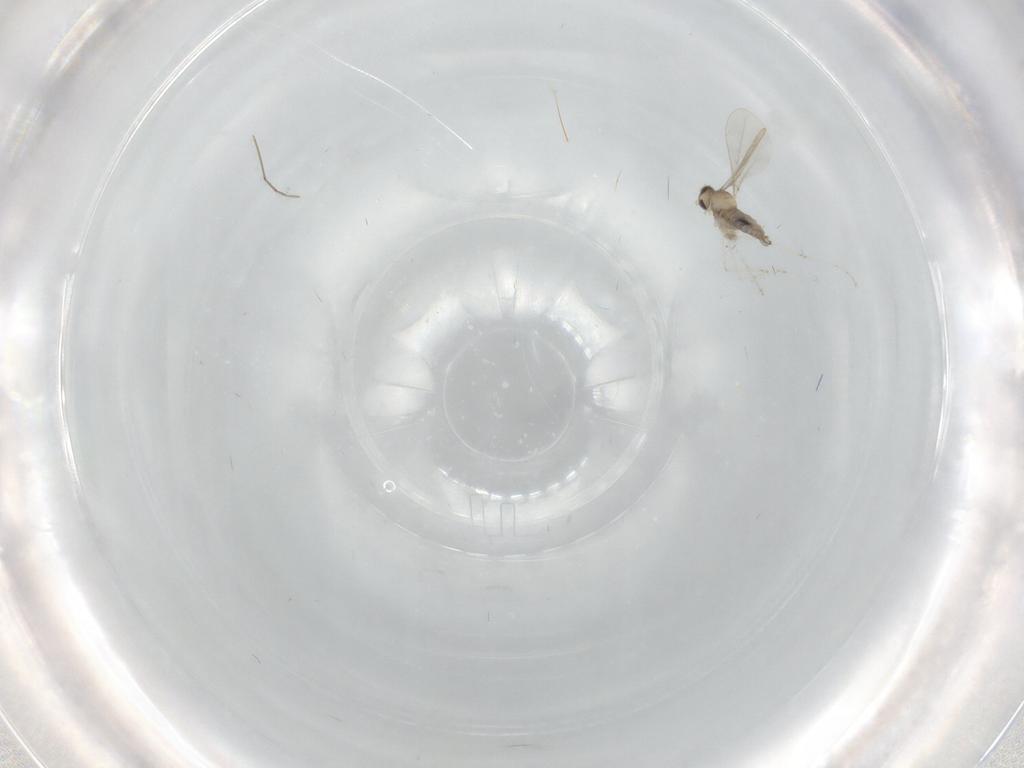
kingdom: Animalia
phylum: Arthropoda
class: Insecta
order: Diptera
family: Cecidomyiidae
